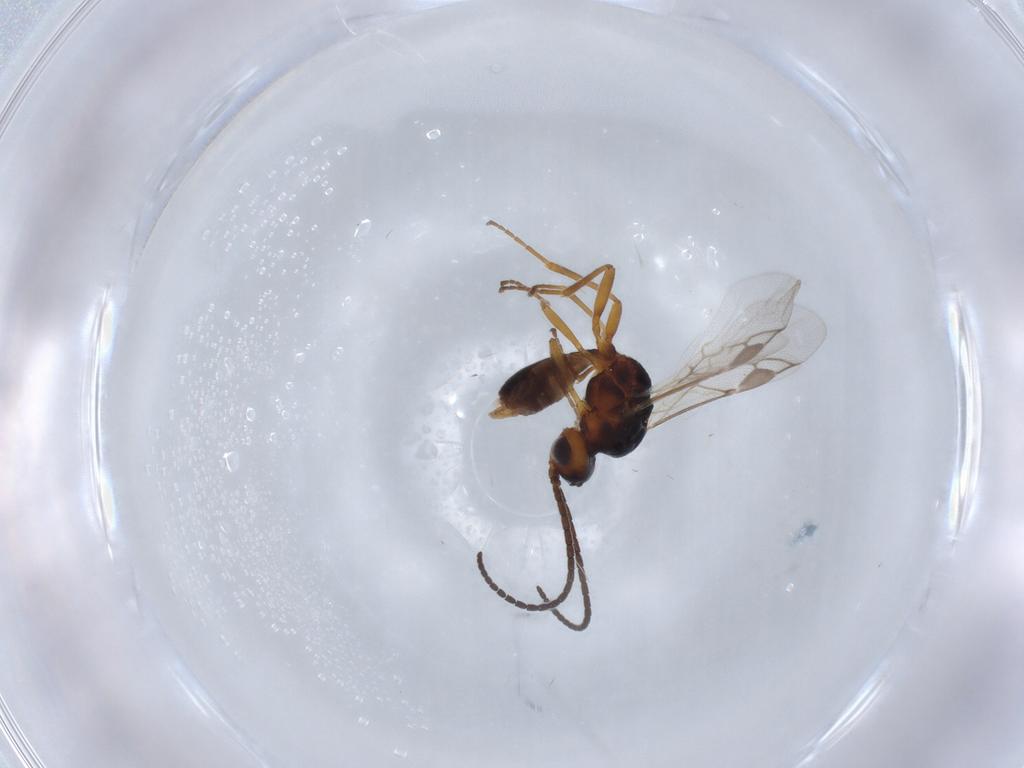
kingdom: Animalia
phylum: Arthropoda
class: Insecta
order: Hymenoptera
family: Braconidae
